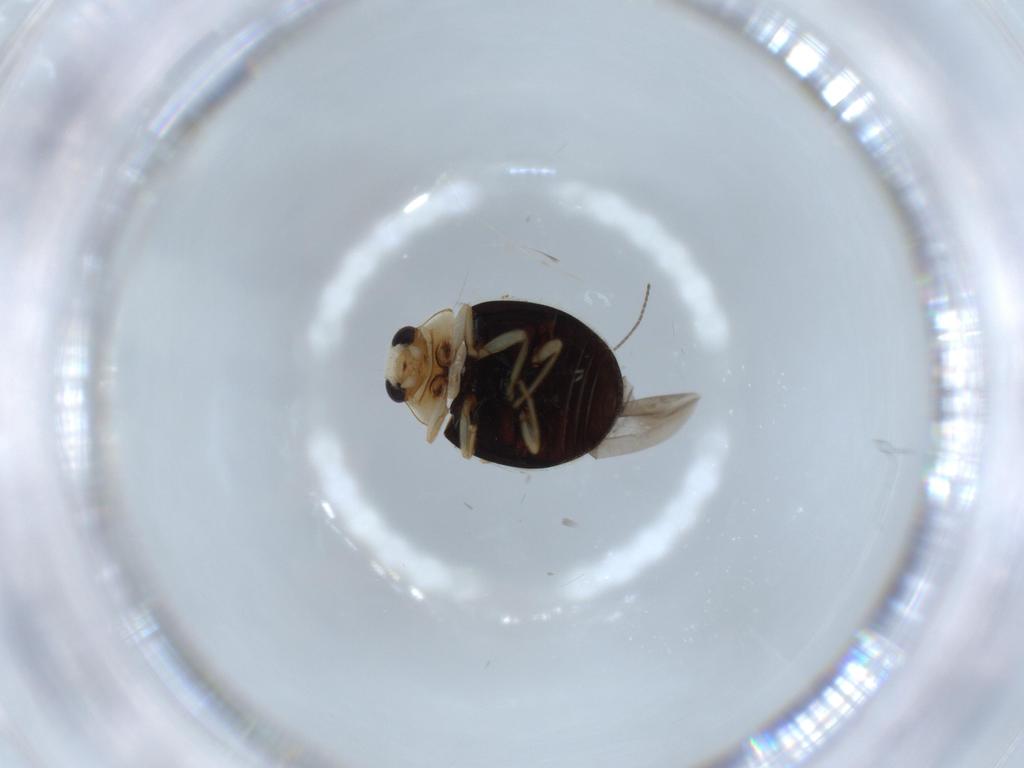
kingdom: Animalia
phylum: Arthropoda
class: Insecta
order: Coleoptera
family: Coccinellidae
